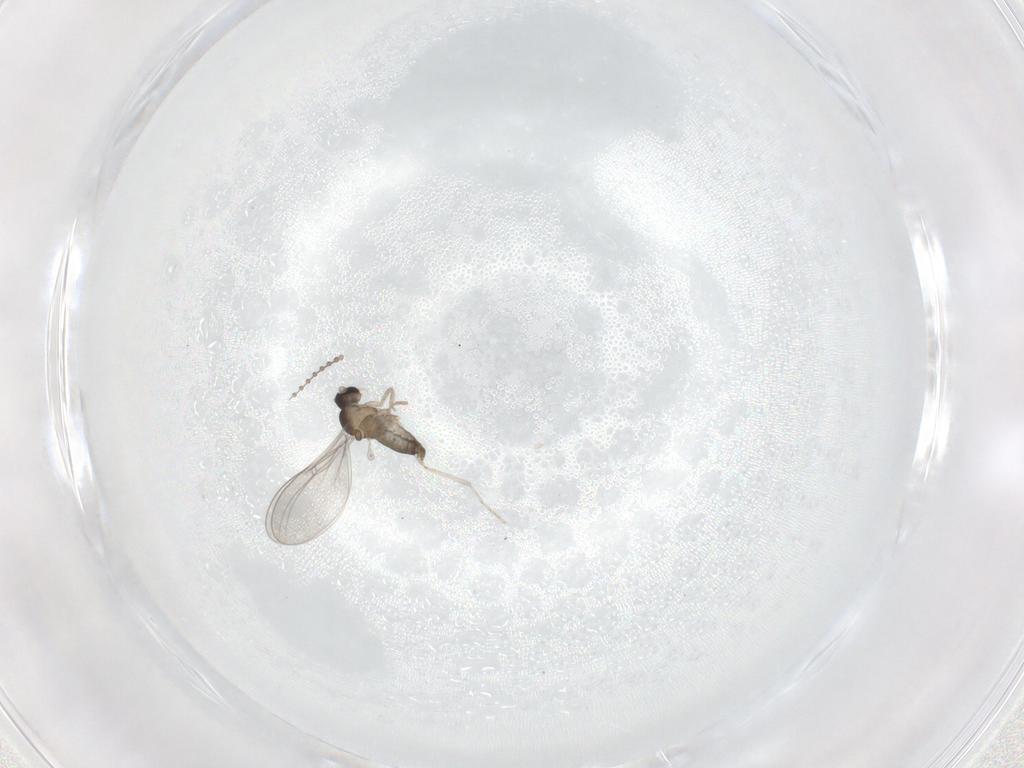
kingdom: Animalia
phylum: Arthropoda
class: Insecta
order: Diptera
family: Cecidomyiidae
